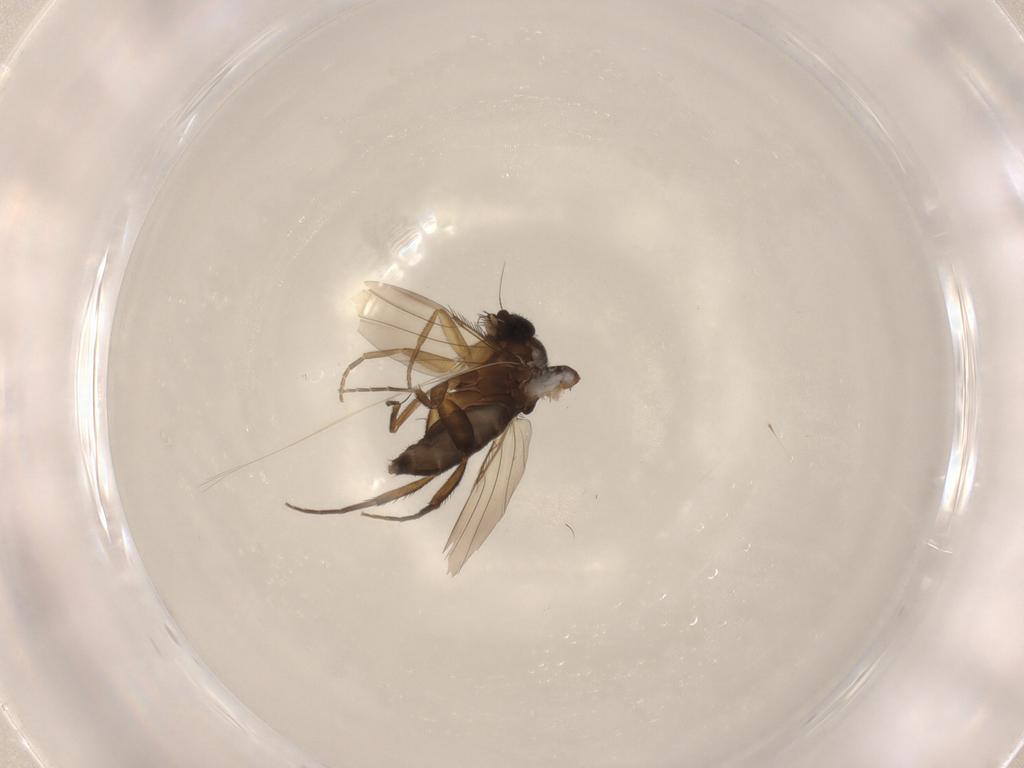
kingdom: Animalia
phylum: Arthropoda
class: Insecta
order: Diptera
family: Phoridae
